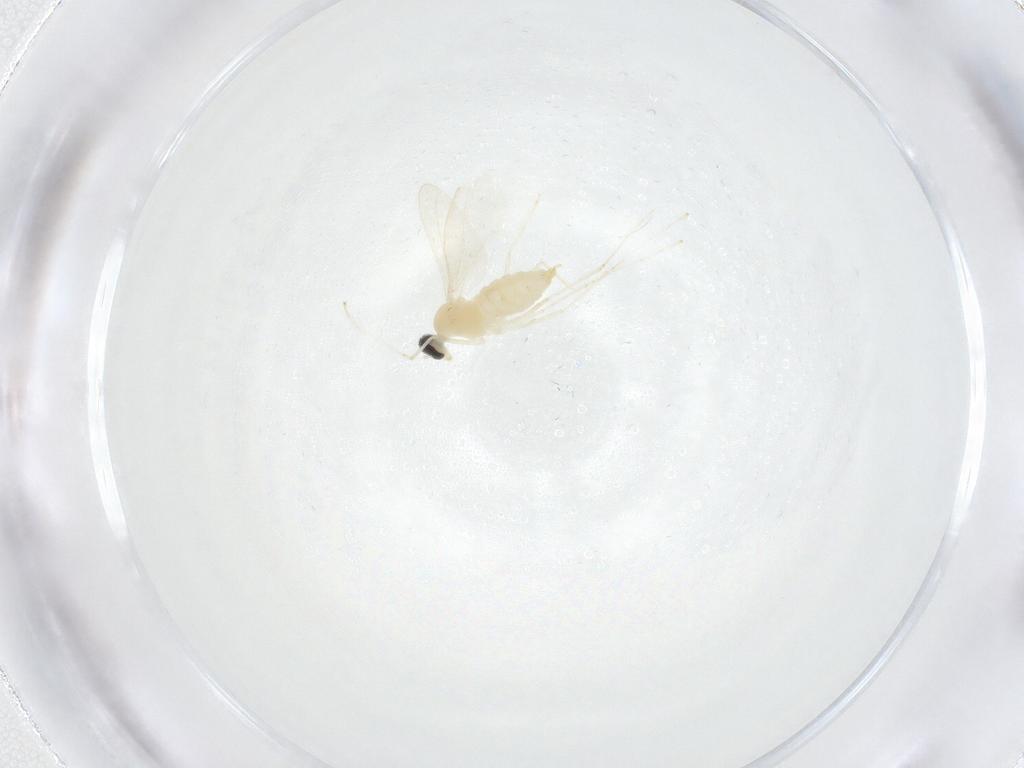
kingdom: Animalia
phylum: Arthropoda
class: Insecta
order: Diptera
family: Cecidomyiidae
